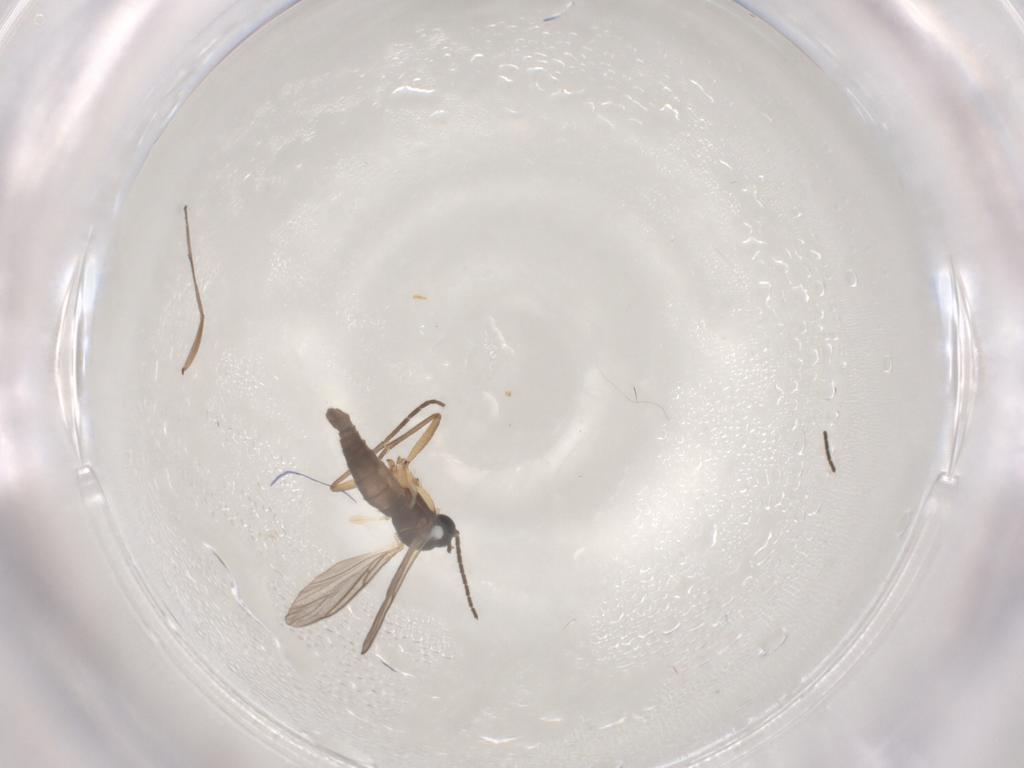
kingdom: Animalia
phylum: Arthropoda
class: Insecta
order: Diptera
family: Sciaridae
